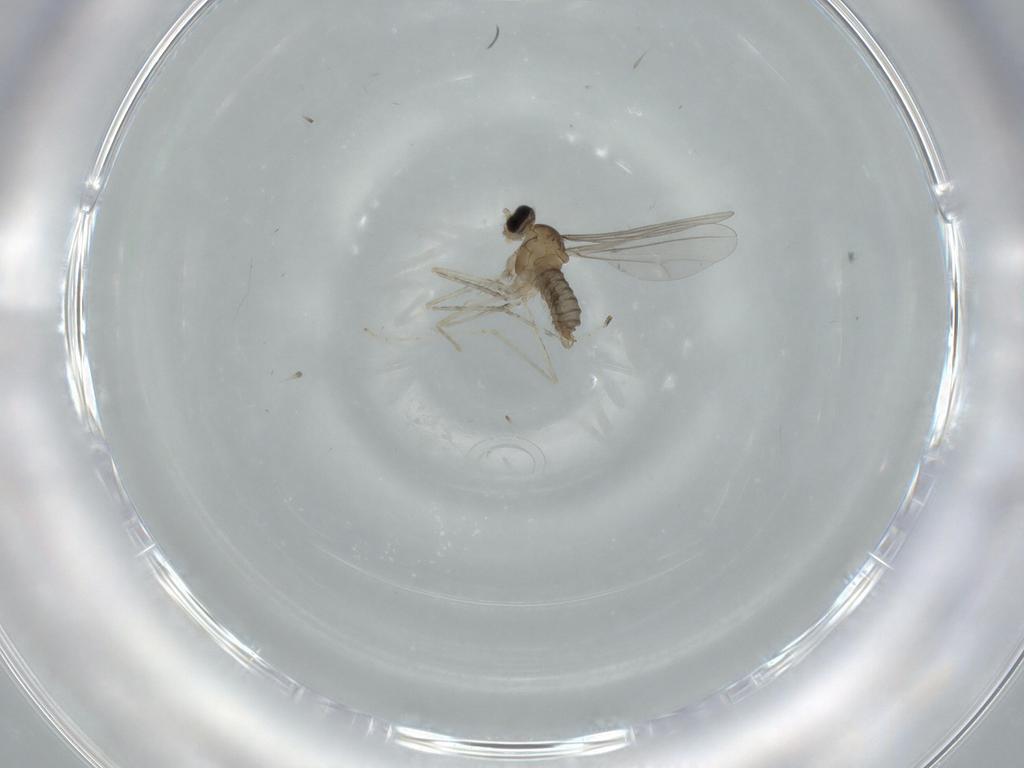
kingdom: Animalia
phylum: Arthropoda
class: Insecta
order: Diptera
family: Cecidomyiidae
